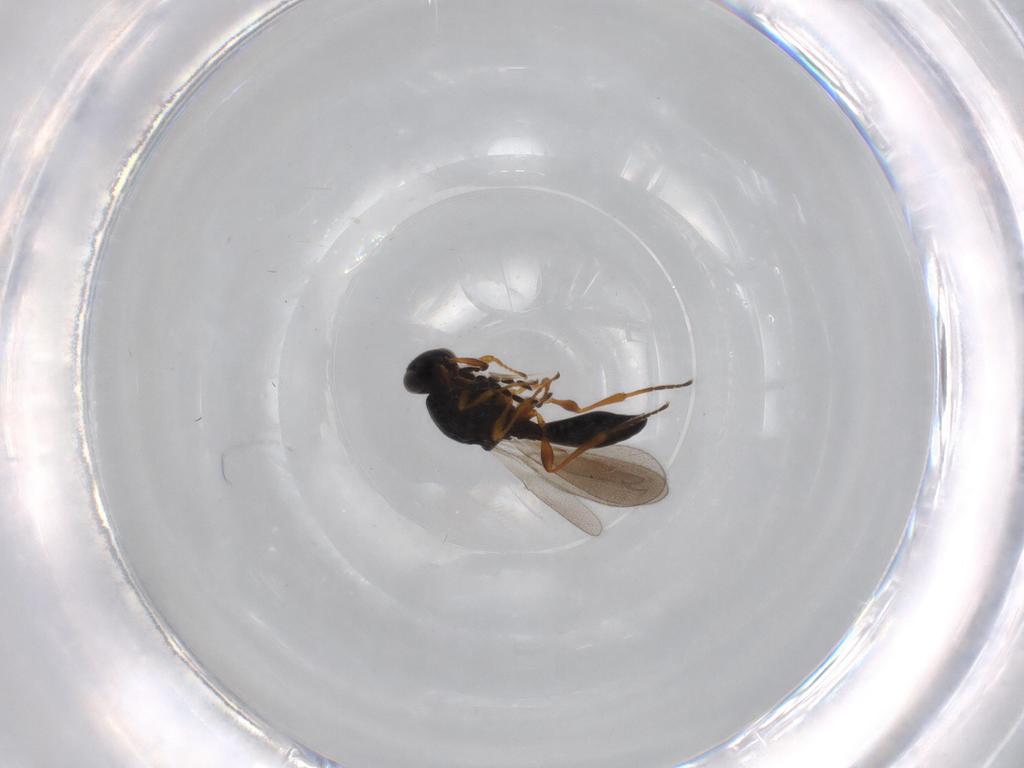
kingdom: Animalia
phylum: Arthropoda
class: Insecta
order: Hymenoptera
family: Platygastridae
